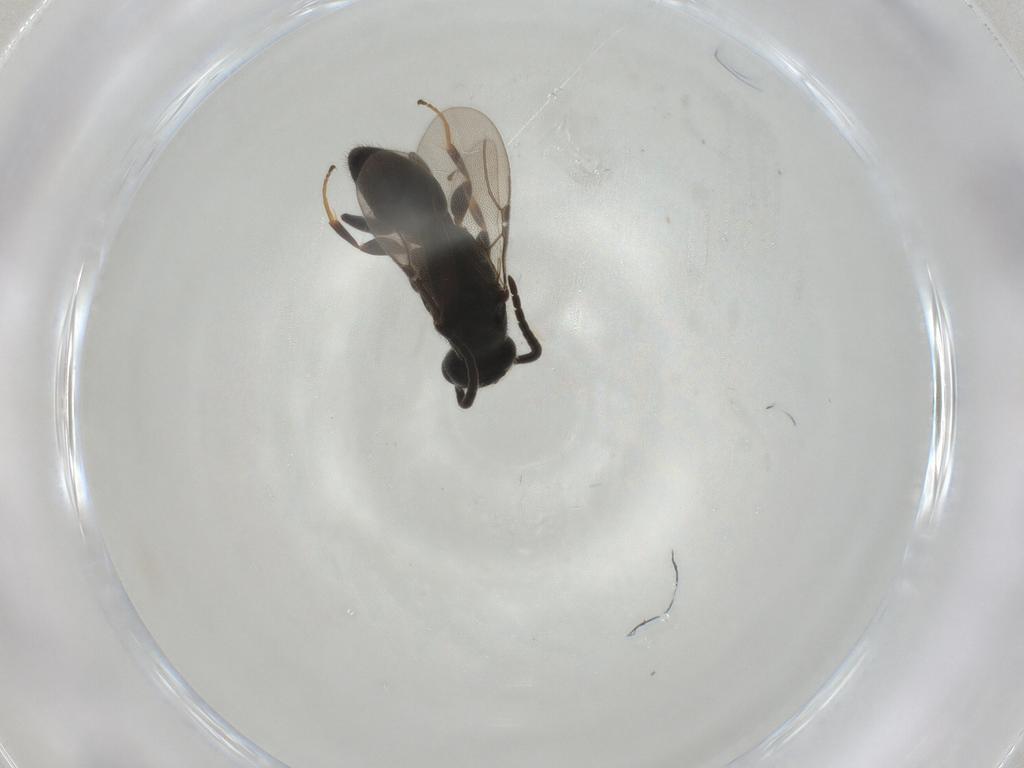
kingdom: Animalia
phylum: Arthropoda
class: Insecta
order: Hymenoptera
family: Bethylidae
